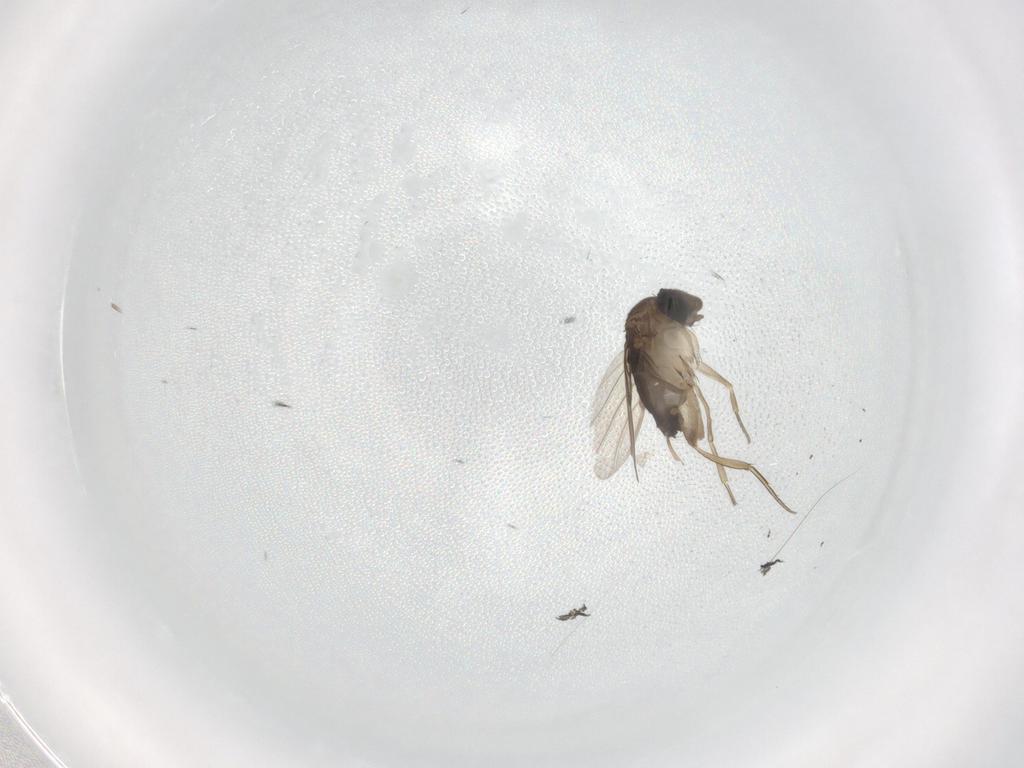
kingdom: Animalia
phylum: Arthropoda
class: Insecta
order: Diptera
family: Phoridae
